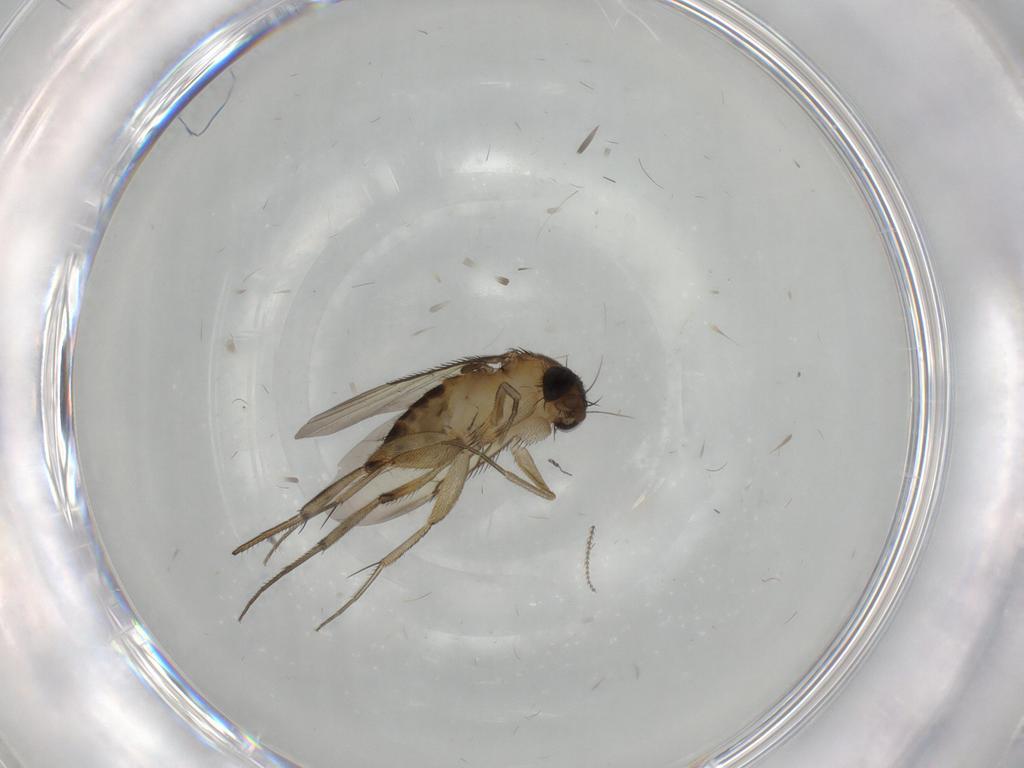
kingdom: Animalia
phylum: Arthropoda
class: Insecta
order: Diptera
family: Phoridae
